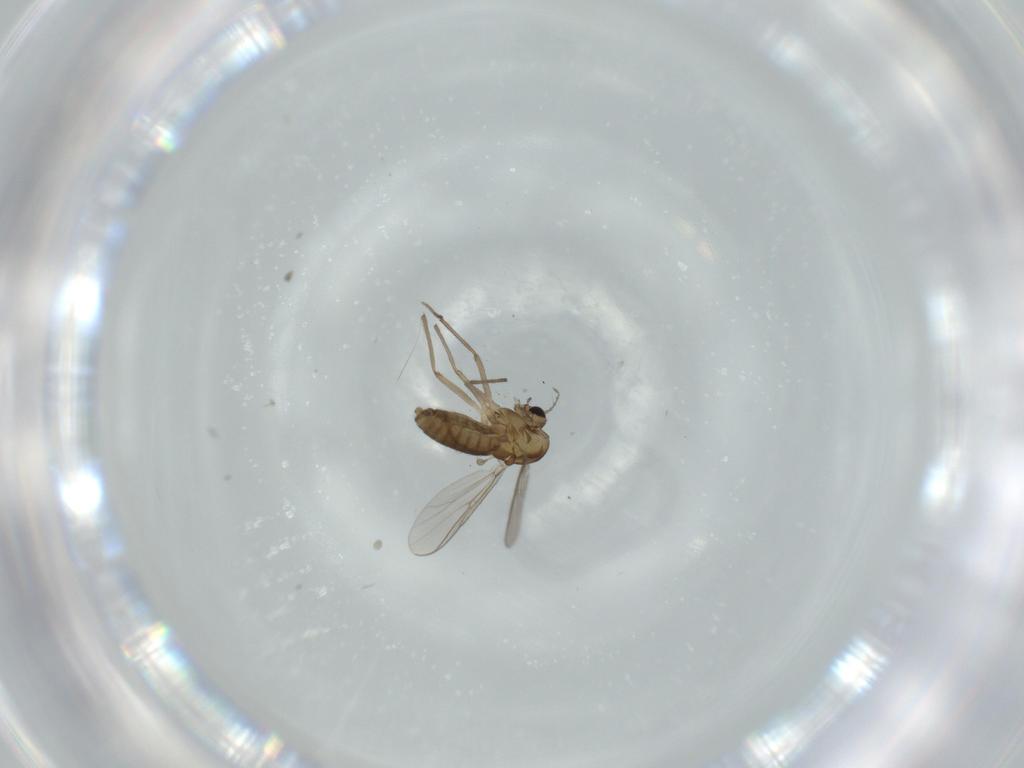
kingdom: Animalia
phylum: Arthropoda
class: Insecta
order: Diptera
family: Chironomidae
